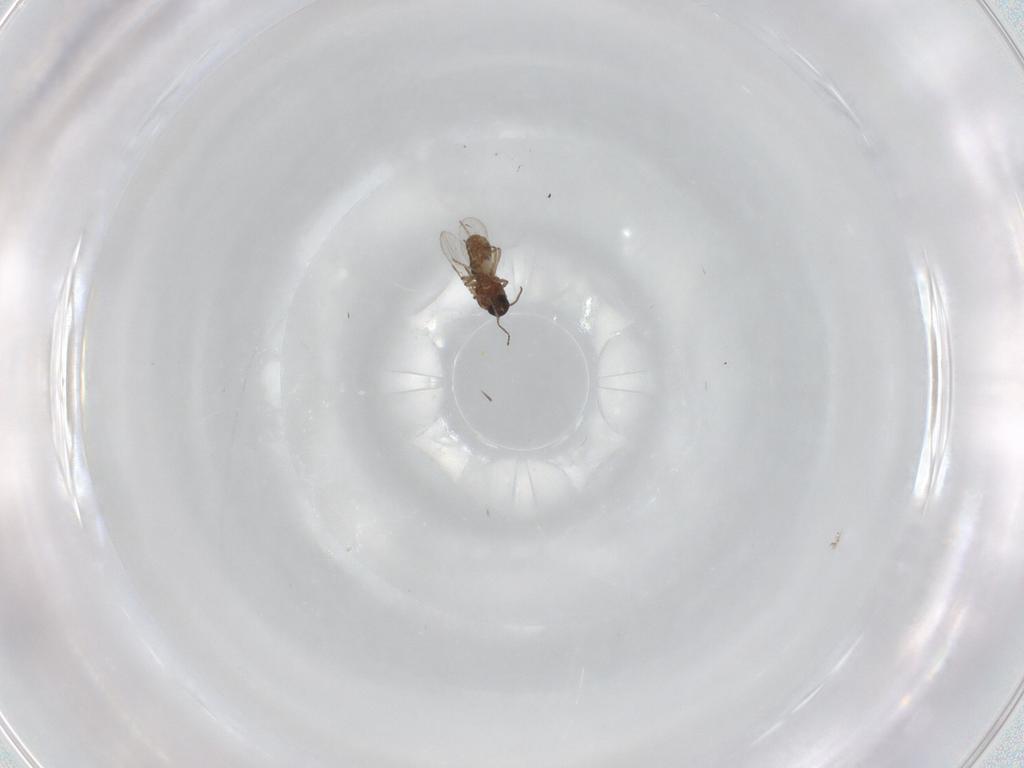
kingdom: Animalia
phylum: Arthropoda
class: Insecta
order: Diptera
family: Ceratopogonidae
